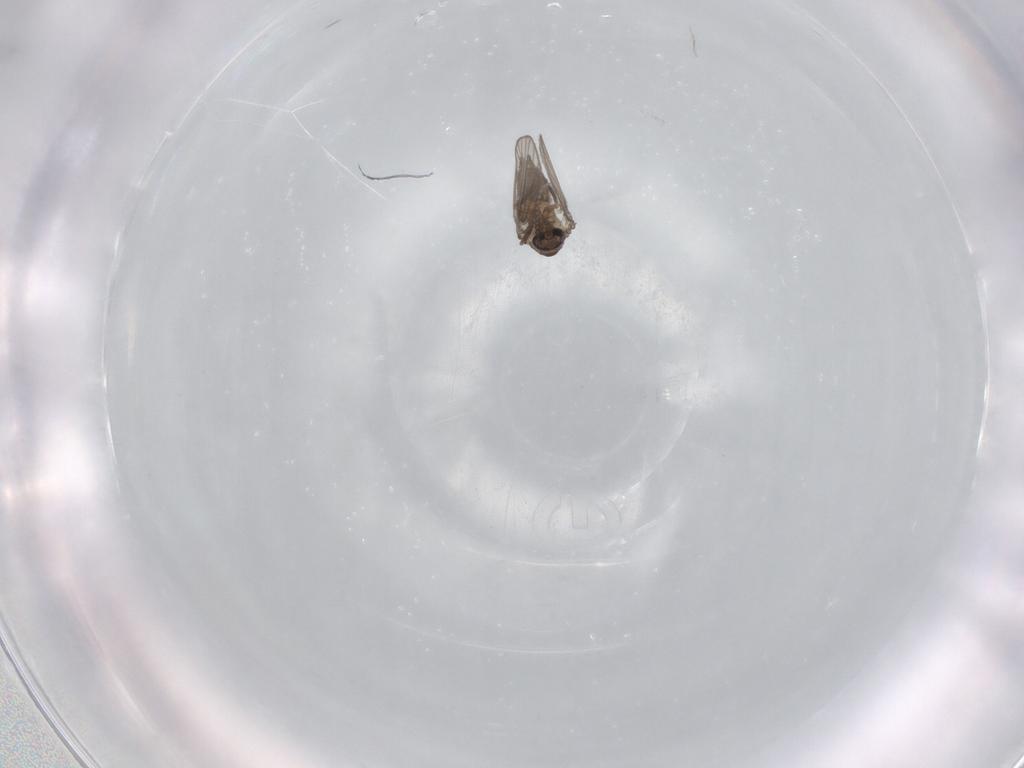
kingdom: Animalia
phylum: Arthropoda
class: Insecta
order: Diptera
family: Psychodidae
